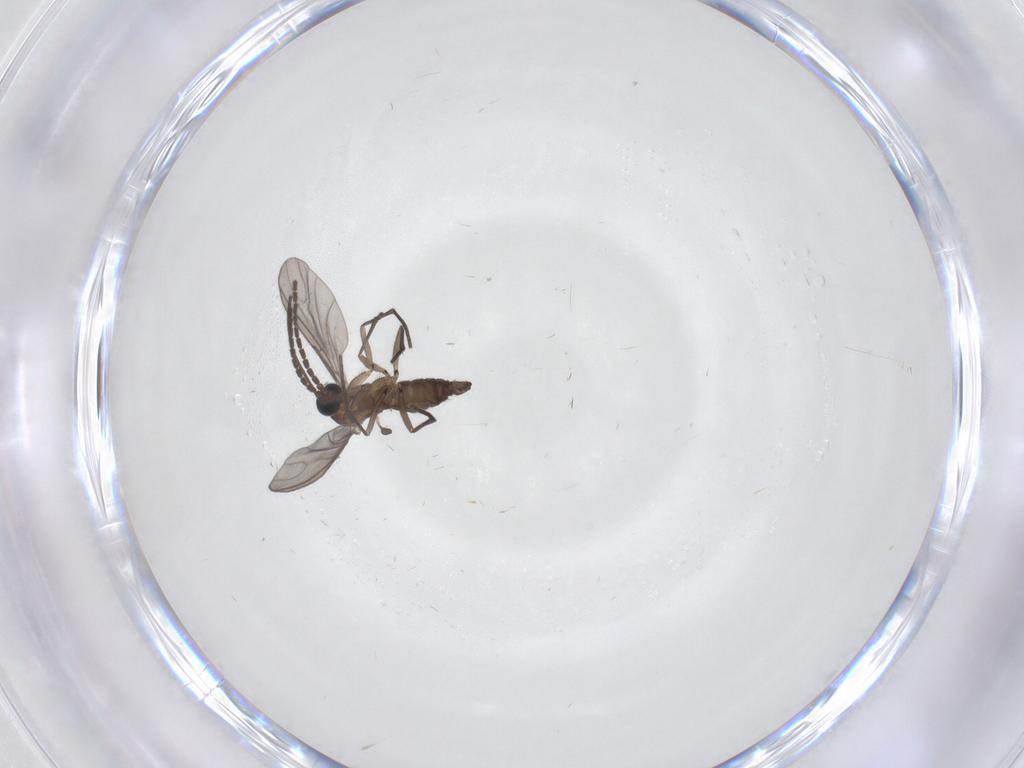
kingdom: Animalia
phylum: Arthropoda
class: Insecta
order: Diptera
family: Sciaridae
